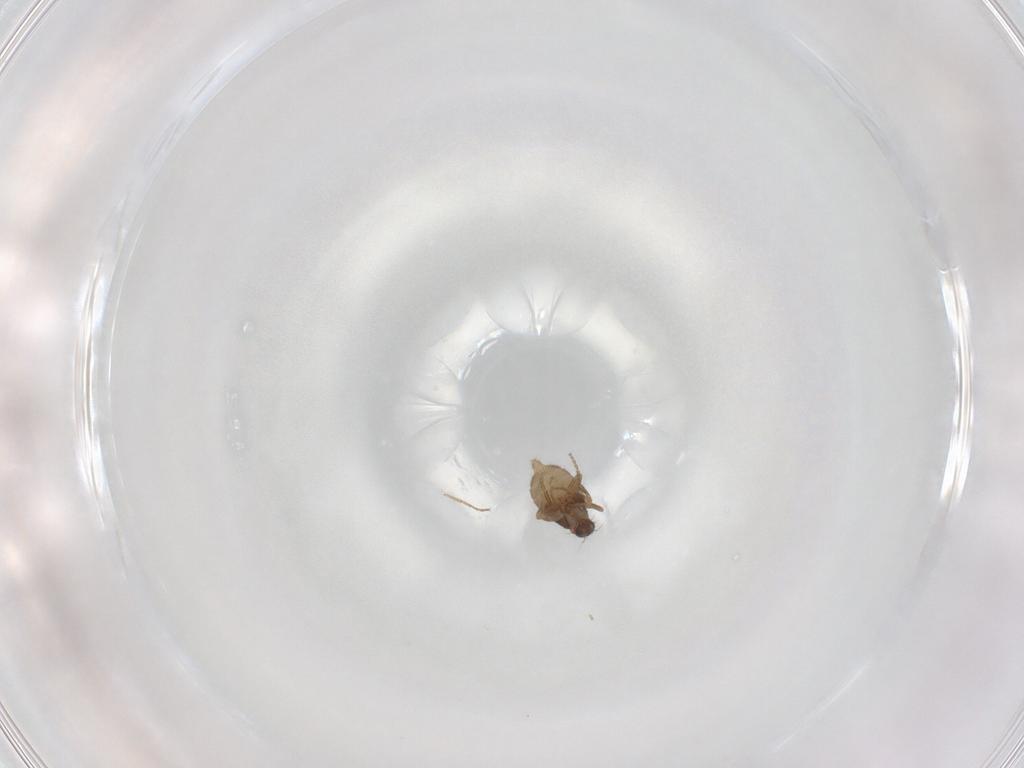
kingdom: Animalia
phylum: Arthropoda
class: Insecta
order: Diptera
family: Chironomidae
